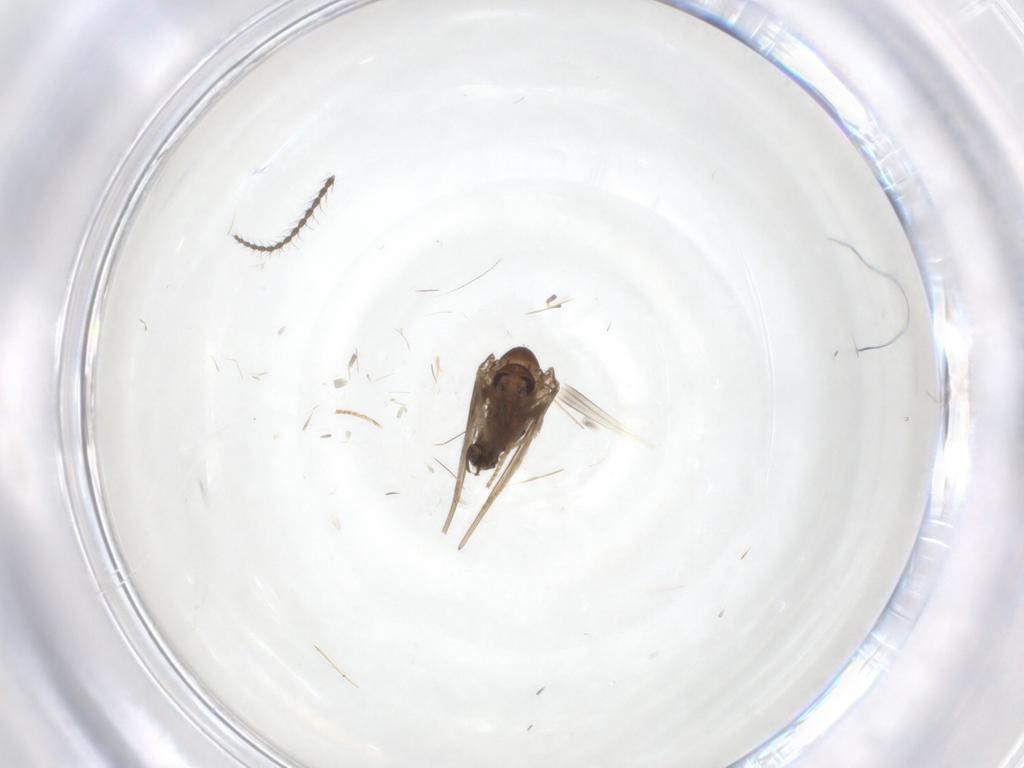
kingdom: Animalia
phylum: Arthropoda
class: Insecta
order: Diptera
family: Psychodidae
